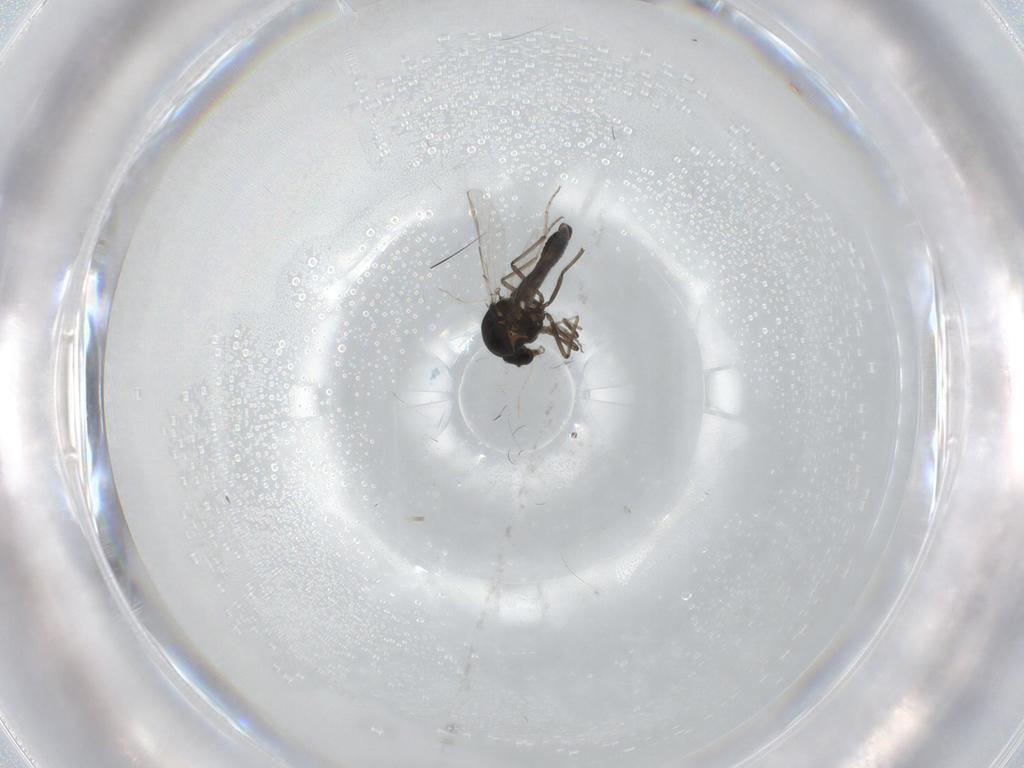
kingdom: Animalia
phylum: Arthropoda
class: Insecta
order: Diptera
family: Ceratopogonidae
